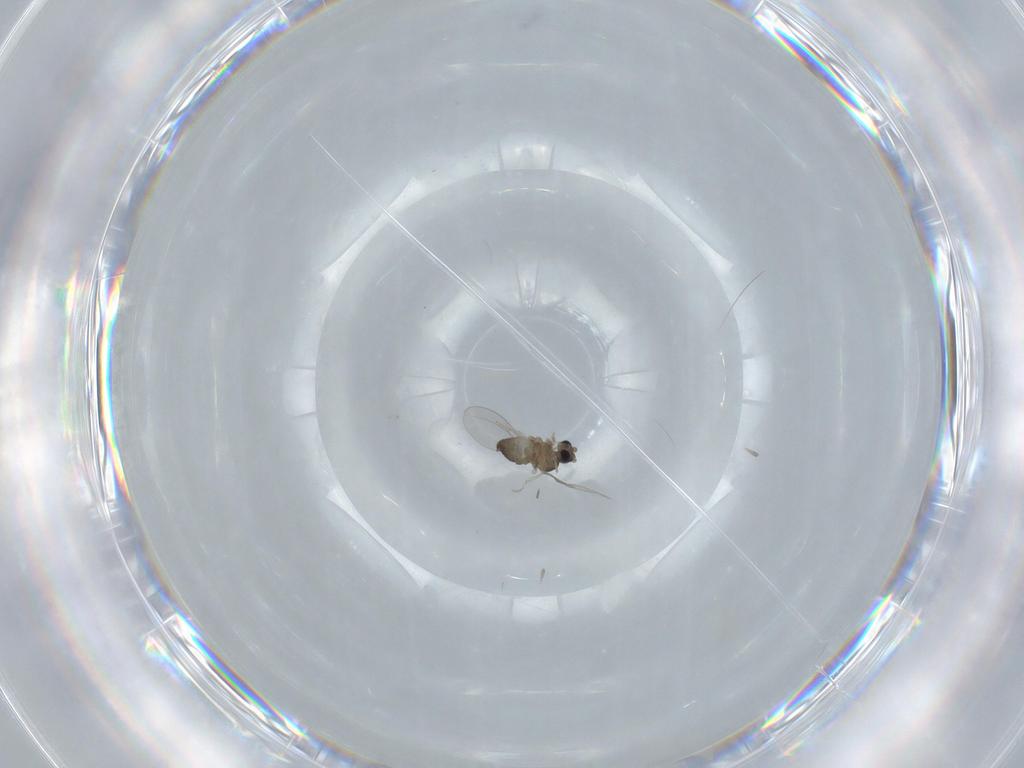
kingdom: Animalia
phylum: Arthropoda
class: Insecta
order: Diptera
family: Cecidomyiidae
